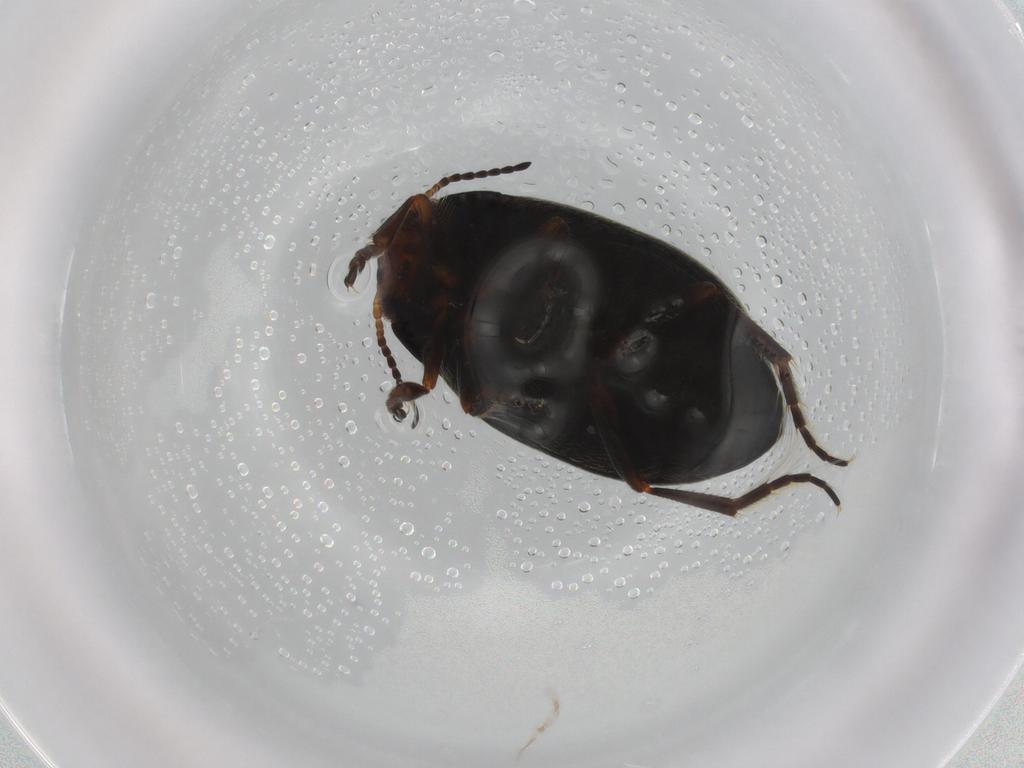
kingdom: Animalia
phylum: Arthropoda
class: Insecta
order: Coleoptera
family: Dytiscidae
